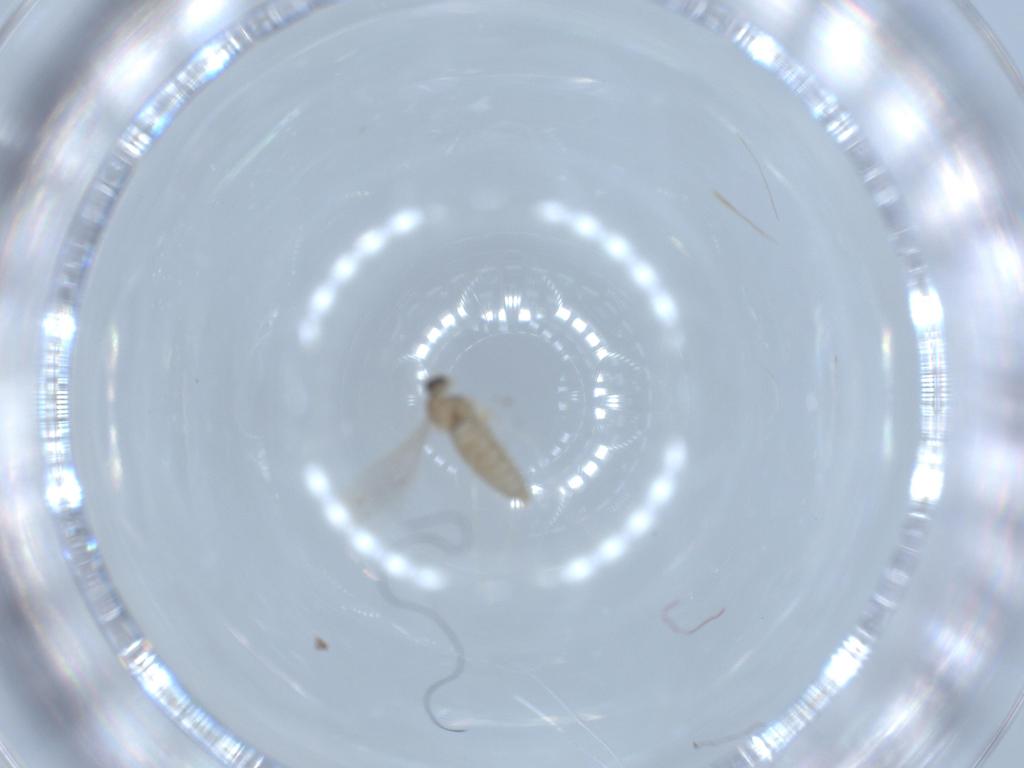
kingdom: Animalia
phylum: Arthropoda
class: Insecta
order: Diptera
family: Cecidomyiidae
